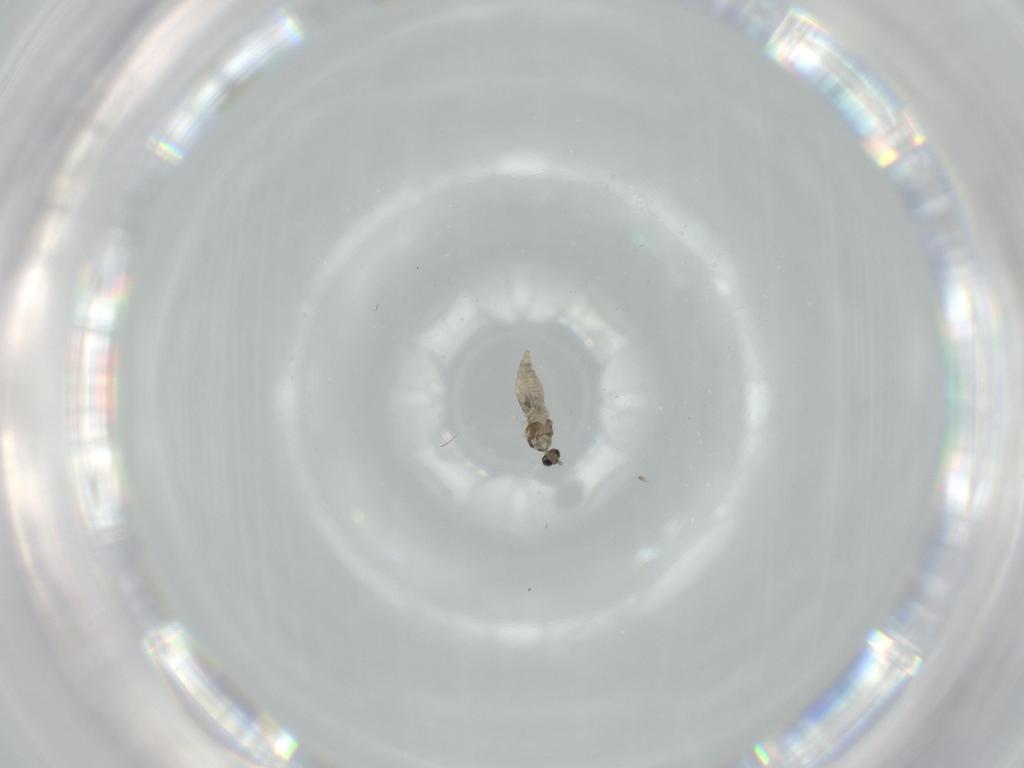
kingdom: Animalia
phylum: Arthropoda
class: Insecta
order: Diptera
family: Cecidomyiidae
